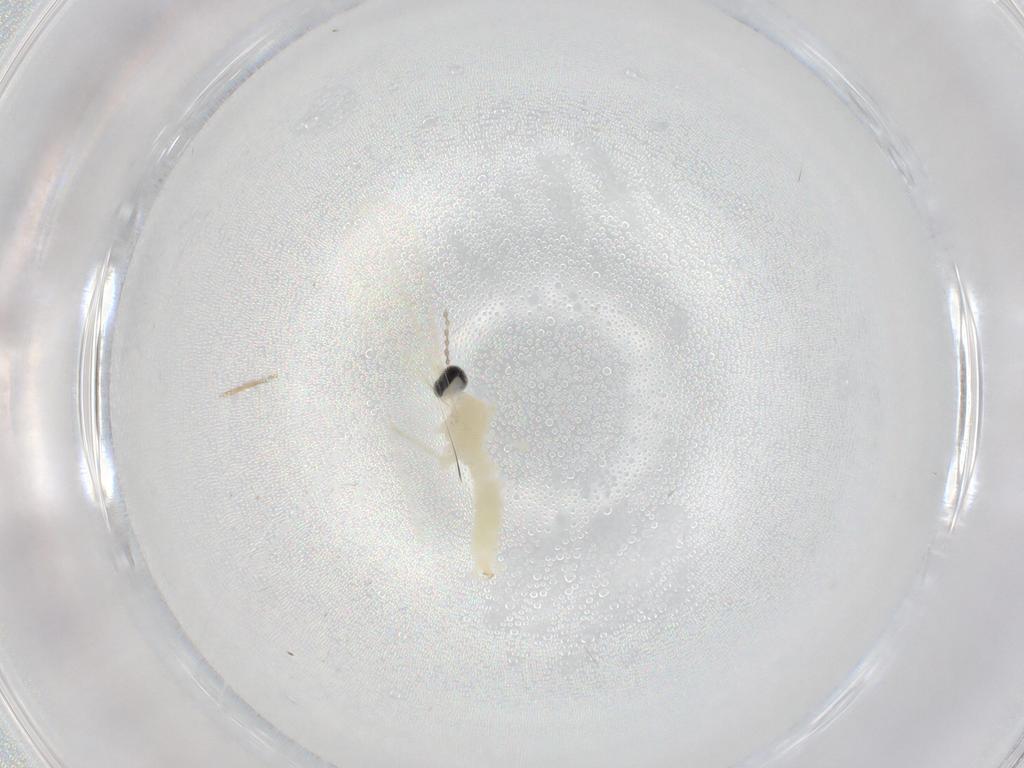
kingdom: Animalia
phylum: Arthropoda
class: Insecta
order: Diptera
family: Cecidomyiidae
